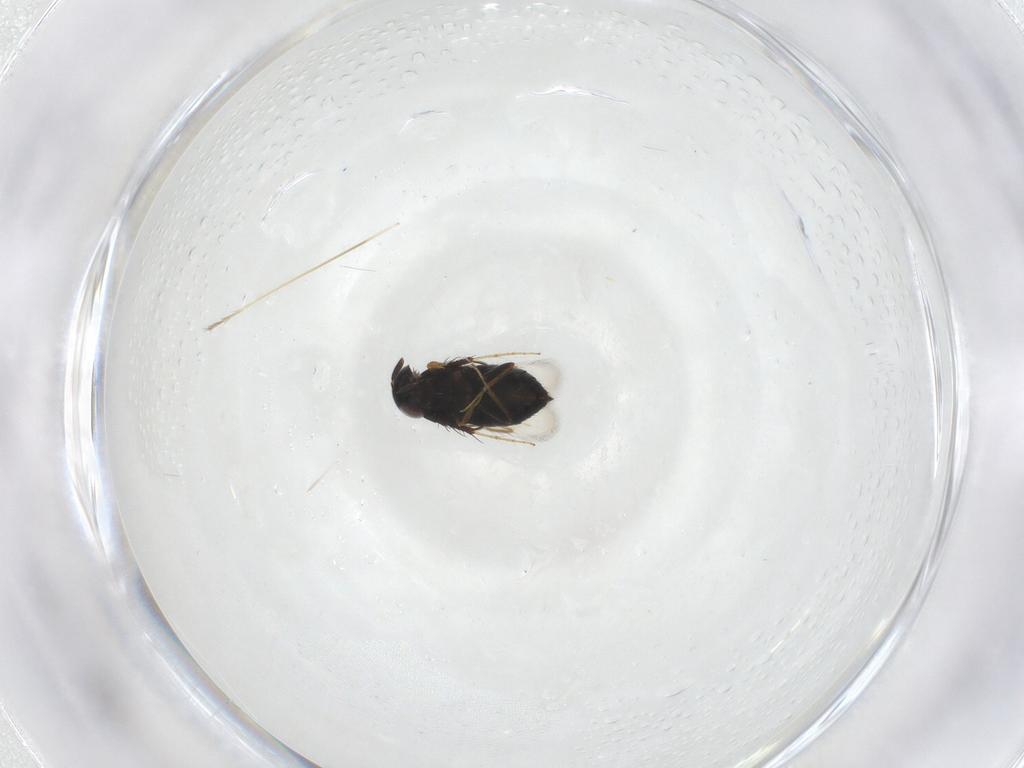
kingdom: Animalia
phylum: Arthropoda
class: Insecta
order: Hymenoptera
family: Signiphoridae
